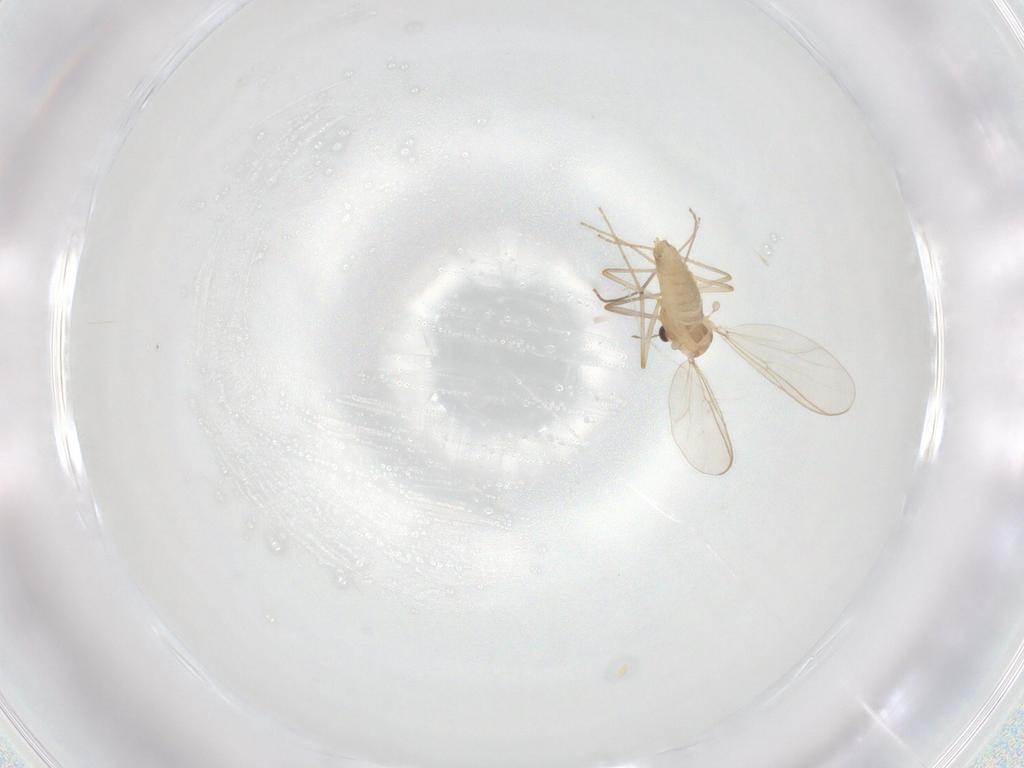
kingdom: Animalia
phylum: Arthropoda
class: Insecta
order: Diptera
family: Chironomidae
